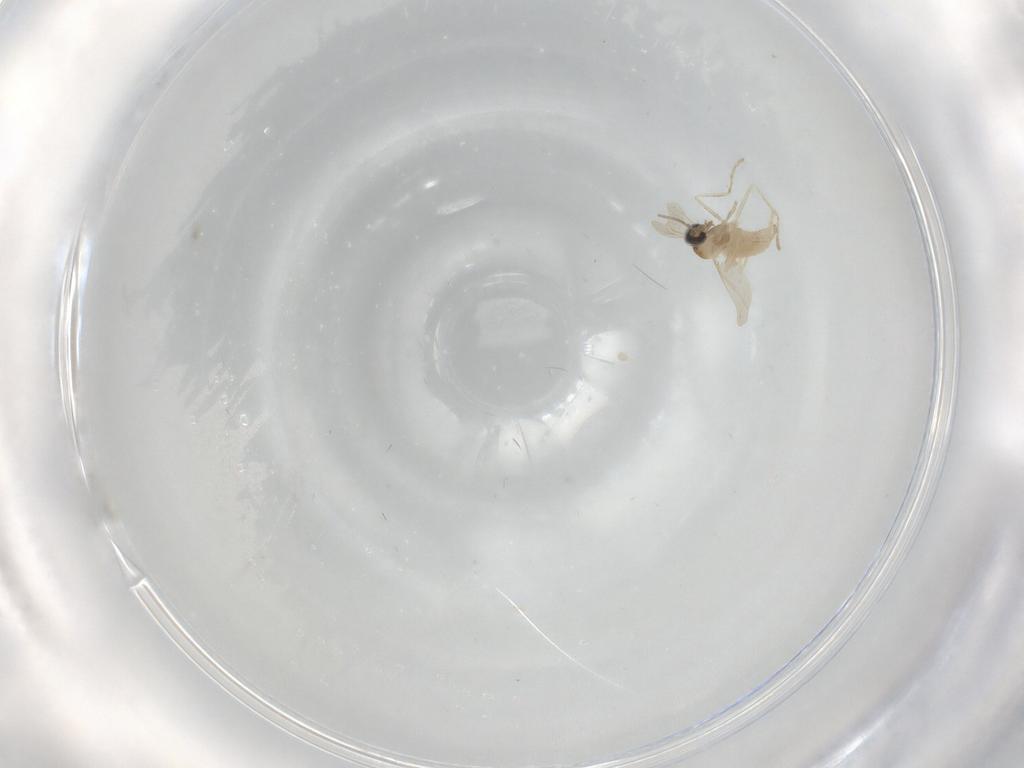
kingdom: Animalia
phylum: Arthropoda
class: Insecta
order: Diptera
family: Cecidomyiidae
